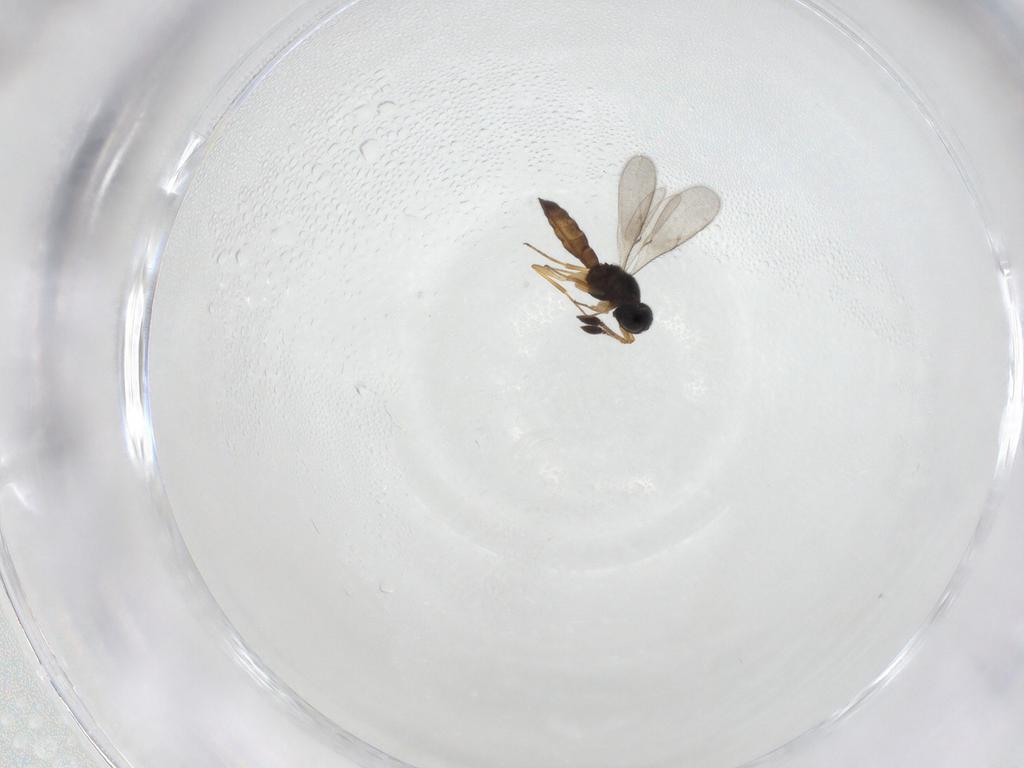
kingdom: Animalia
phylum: Arthropoda
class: Insecta
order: Hymenoptera
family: Scelionidae
